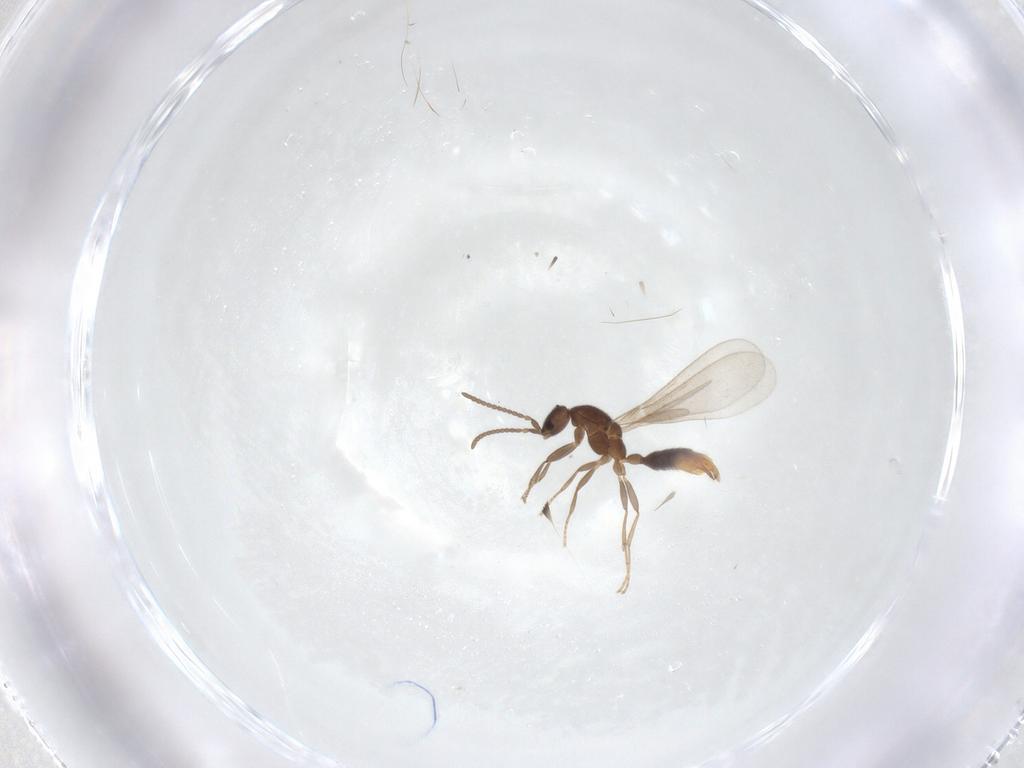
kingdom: Animalia
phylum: Arthropoda
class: Insecta
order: Hymenoptera
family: Formicidae
